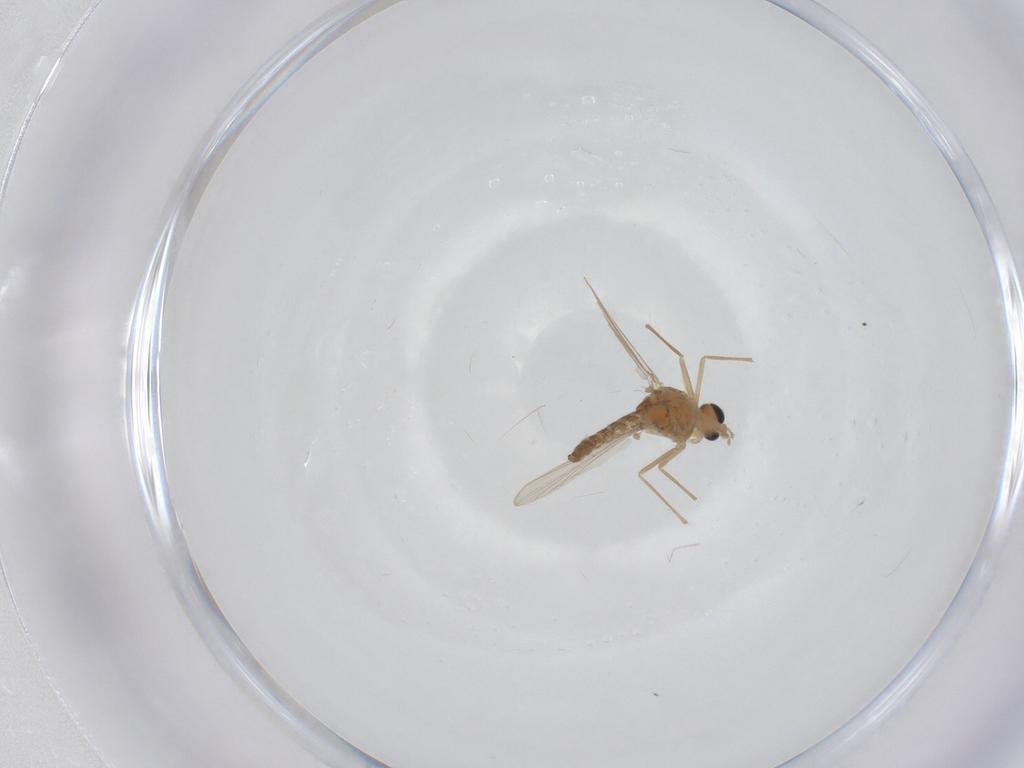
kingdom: Animalia
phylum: Arthropoda
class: Insecta
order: Diptera
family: Chironomidae
